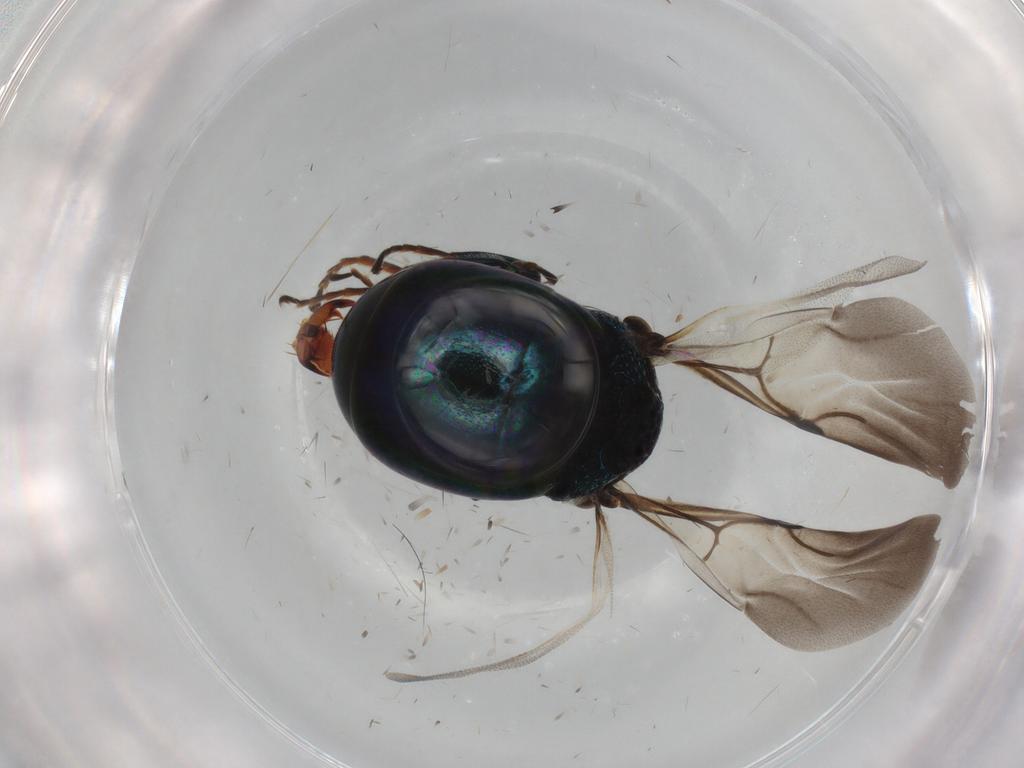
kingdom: Animalia
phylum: Arthropoda
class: Insecta
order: Hymenoptera
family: Chrysididae
